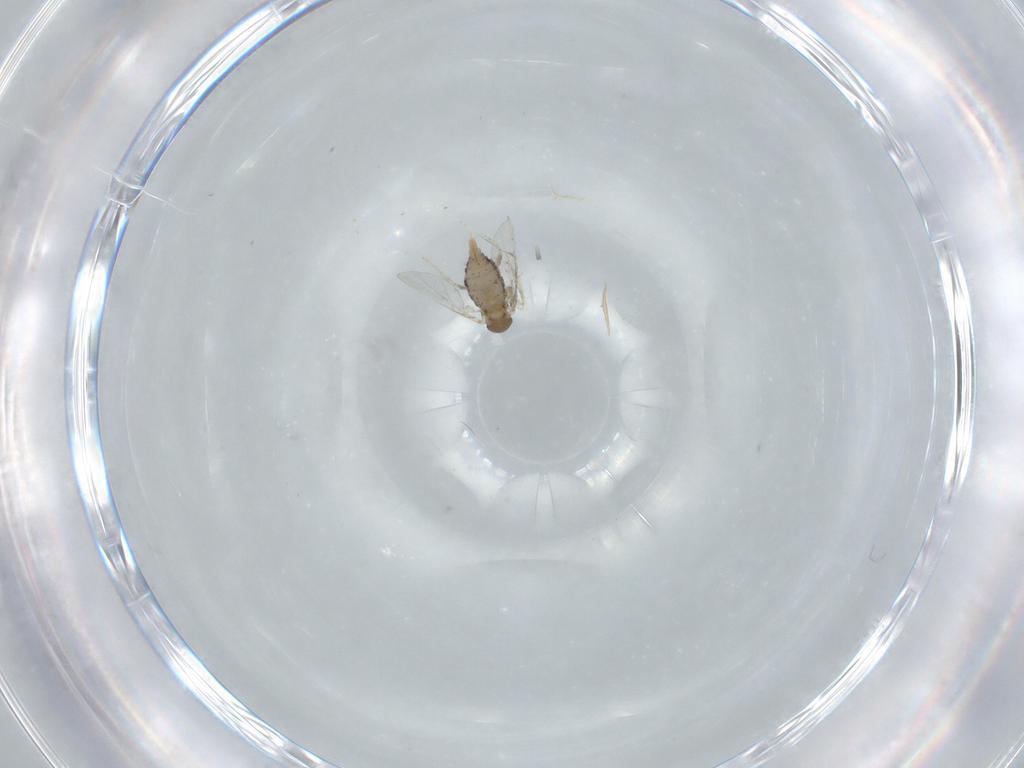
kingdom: Animalia
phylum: Arthropoda
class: Insecta
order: Diptera
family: Cecidomyiidae
